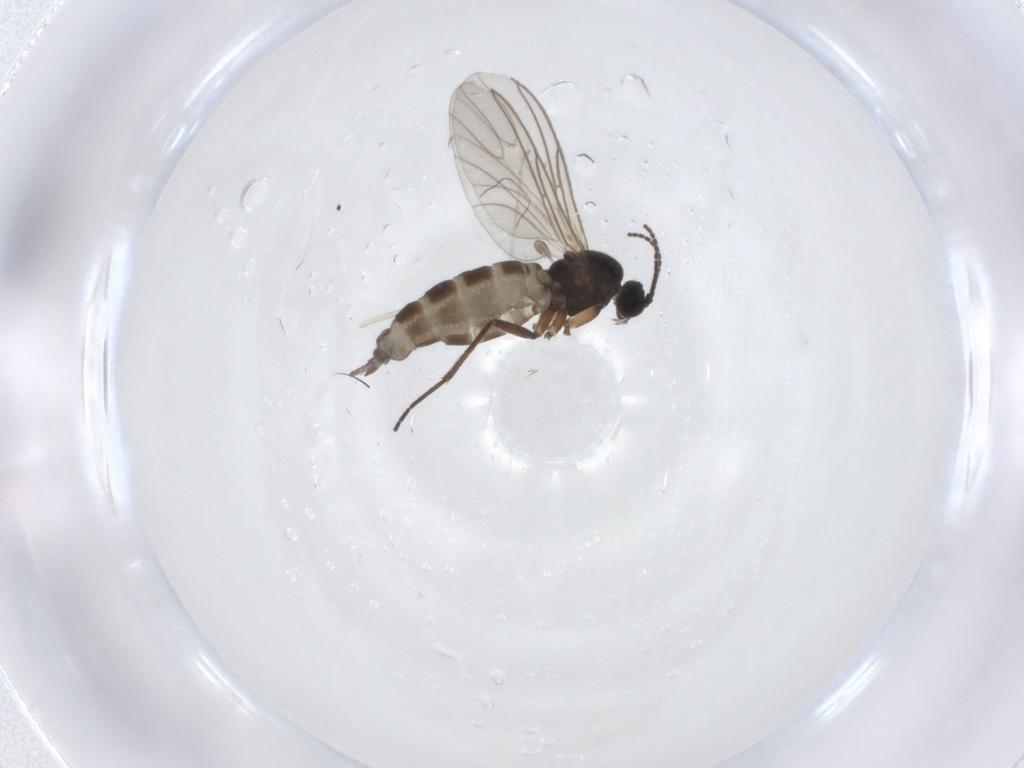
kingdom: Animalia
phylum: Arthropoda
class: Insecta
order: Diptera
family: Sciaridae
